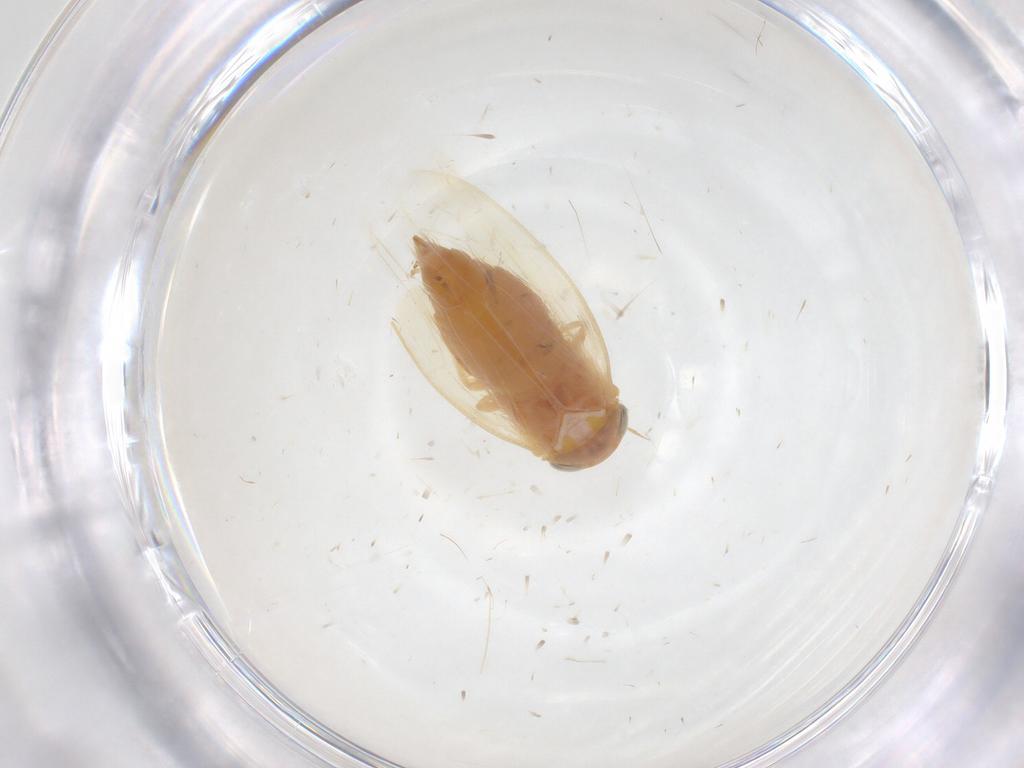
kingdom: Animalia
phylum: Arthropoda
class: Insecta
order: Hemiptera
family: Cicadellidae
